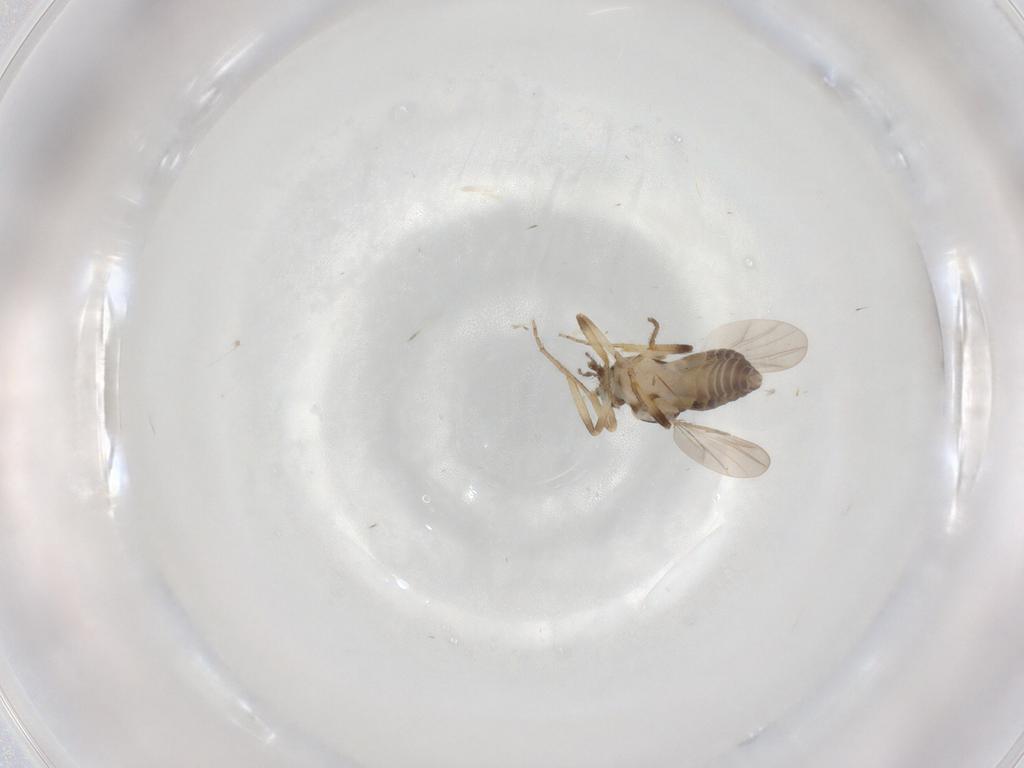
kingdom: Animalia
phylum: Arthropoda
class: Insecta
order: Diptera
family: Ceratopogonidae
